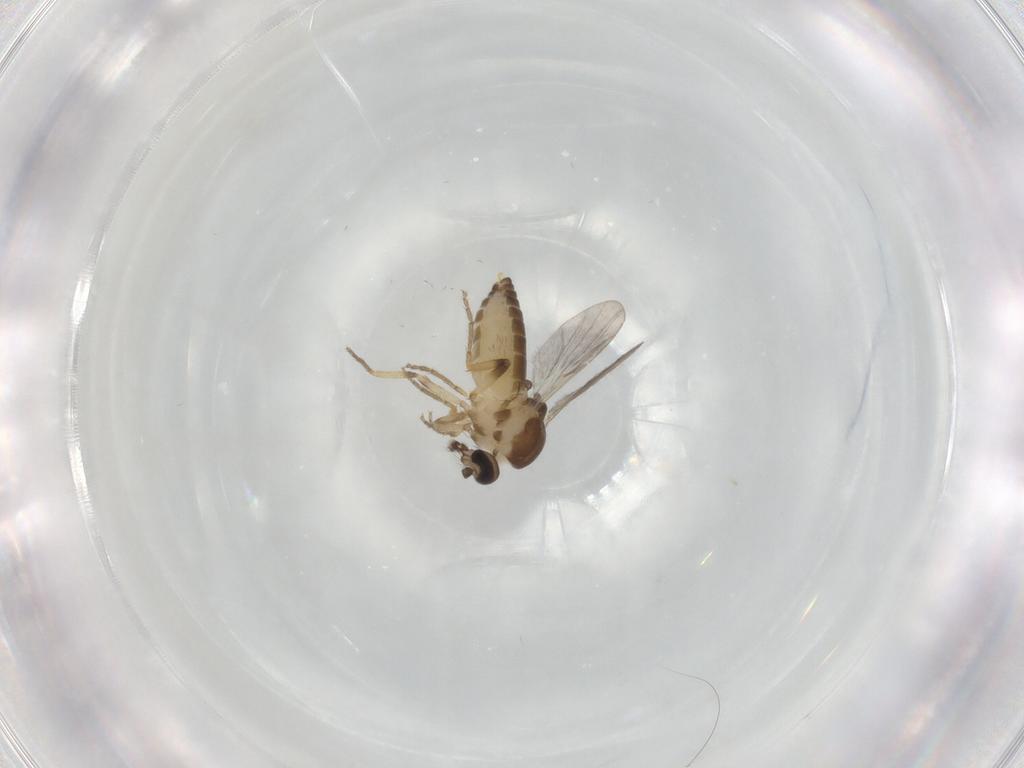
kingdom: Animalia
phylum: Arthropoda
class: Insecta
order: Diptera
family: Ceratopogonidae
